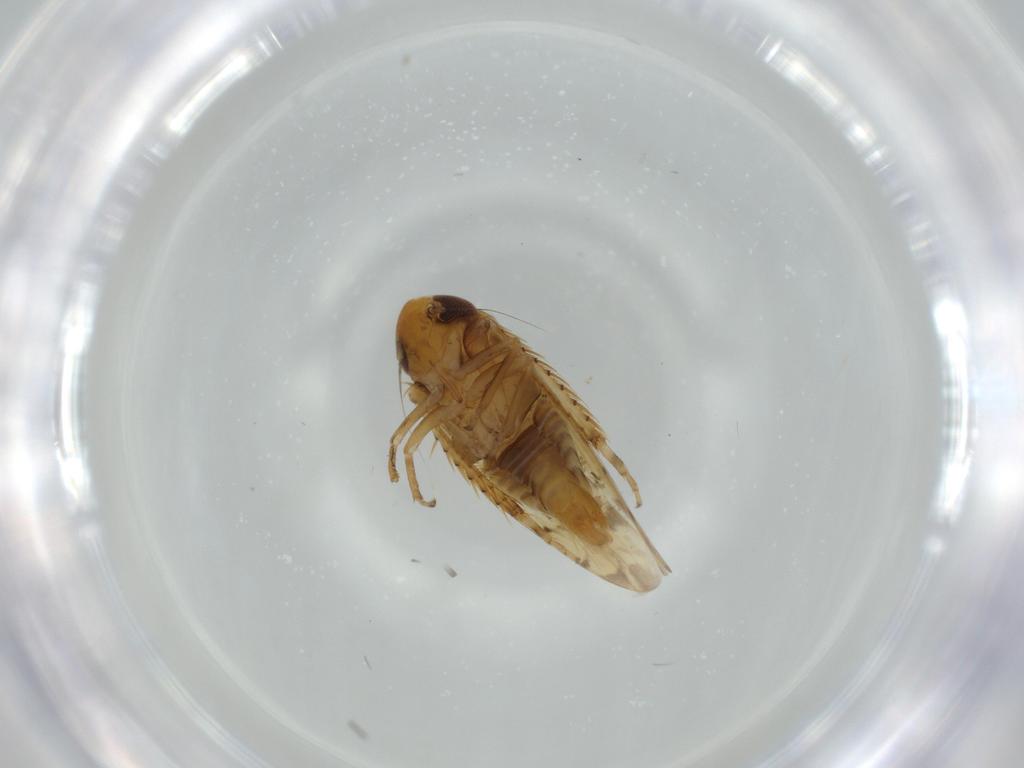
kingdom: Animalia
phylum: Arthropoda
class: Insecta
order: Hemiptera
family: Cicadellidae
